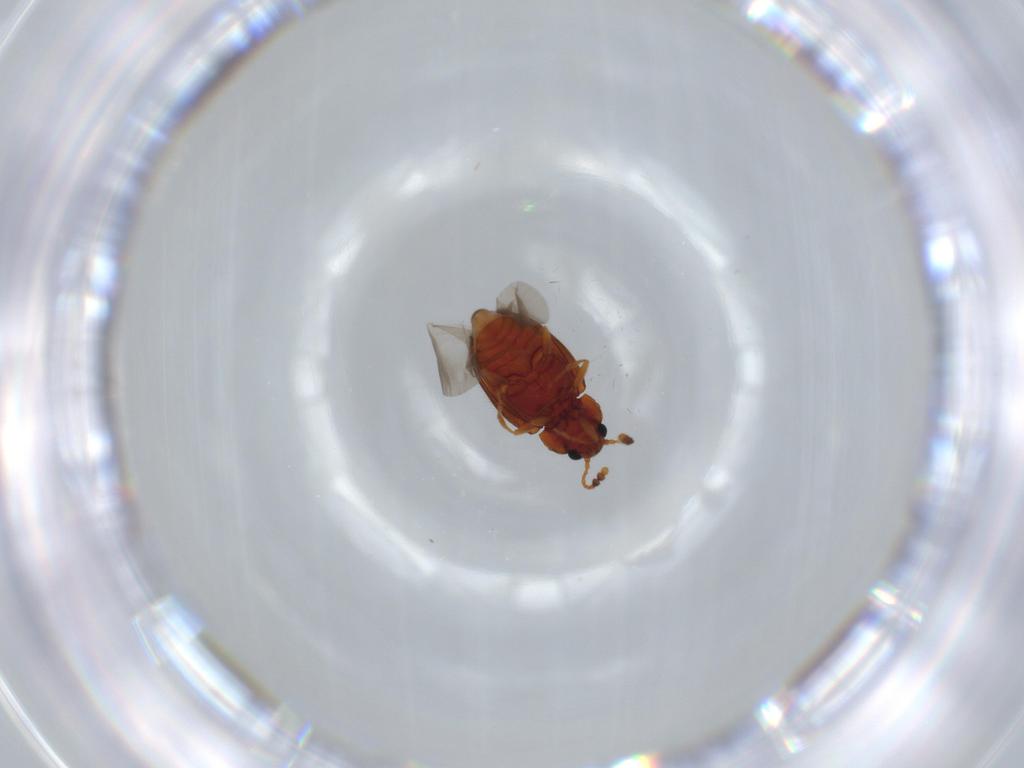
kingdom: Animalia
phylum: Arthropoda
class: Insecta
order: Coleoptera
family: Erotylidae
